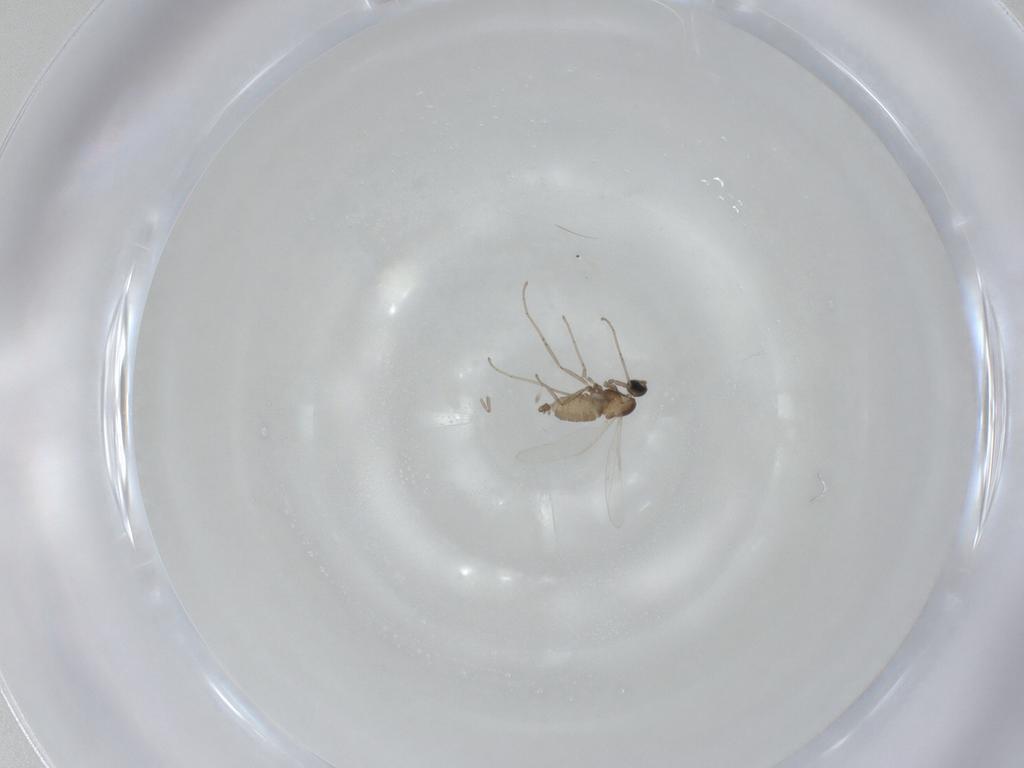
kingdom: Animalia
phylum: Arthropoda
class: Insecta
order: Diptera
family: Cecidomyiidae
